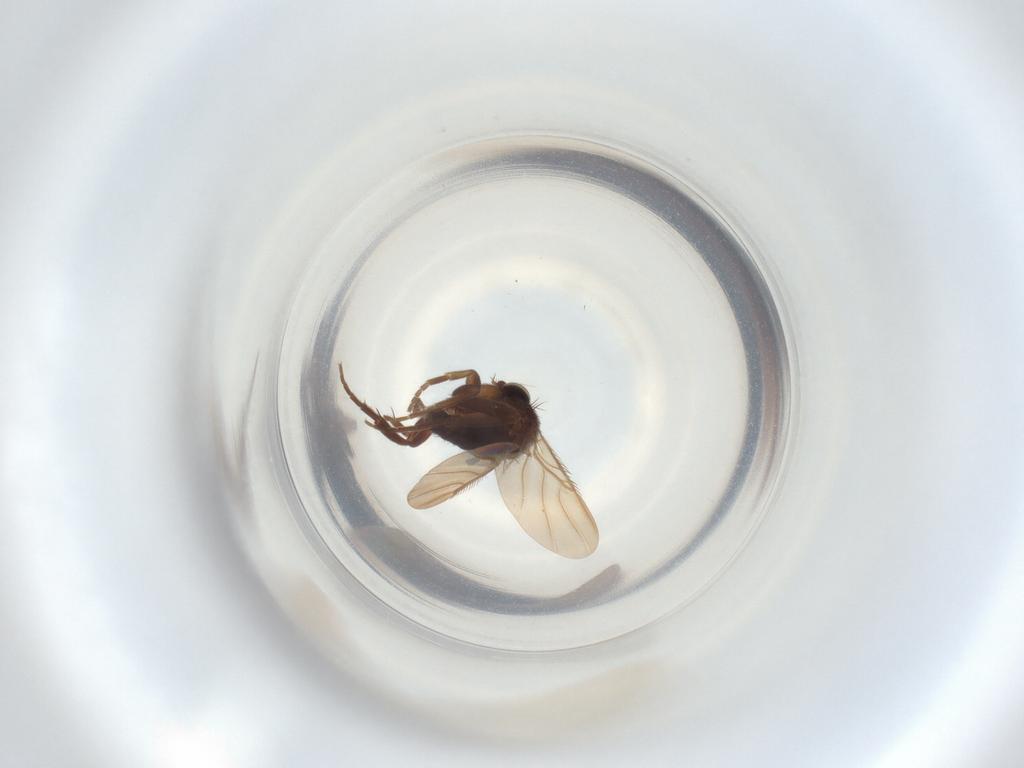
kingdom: Animalia
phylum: Arthropoda
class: Insecta
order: Diptera
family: Phoridae
